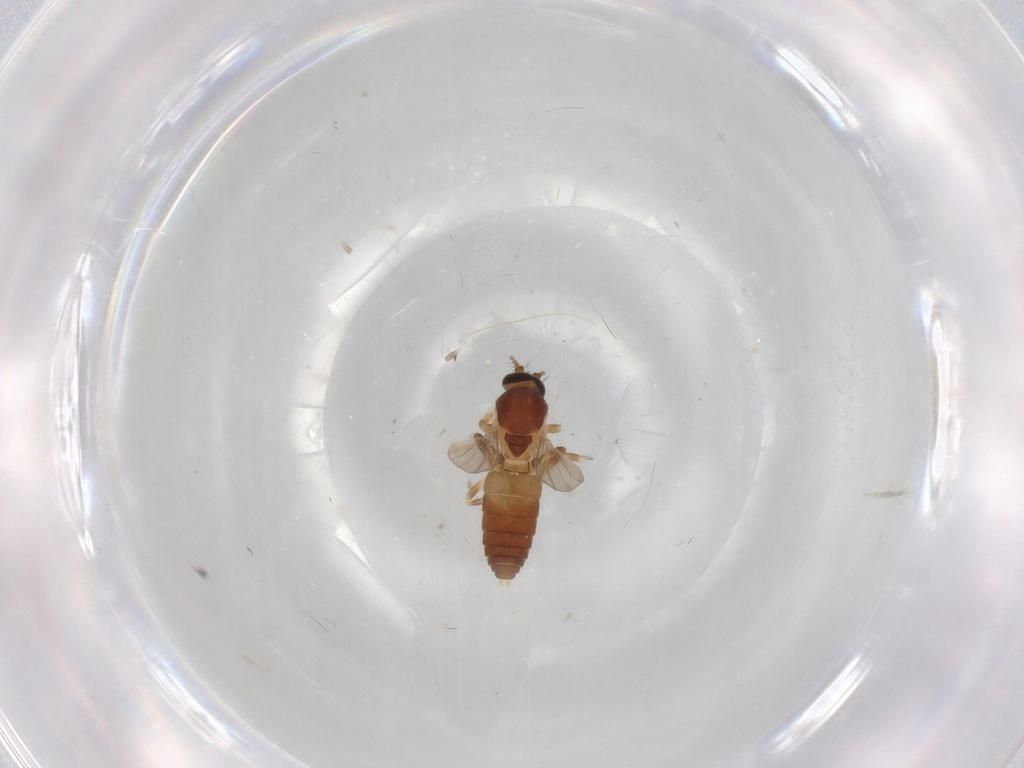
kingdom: Animalia
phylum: Arthropoda
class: Insecta
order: Diptera
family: Ceratopogonidae
